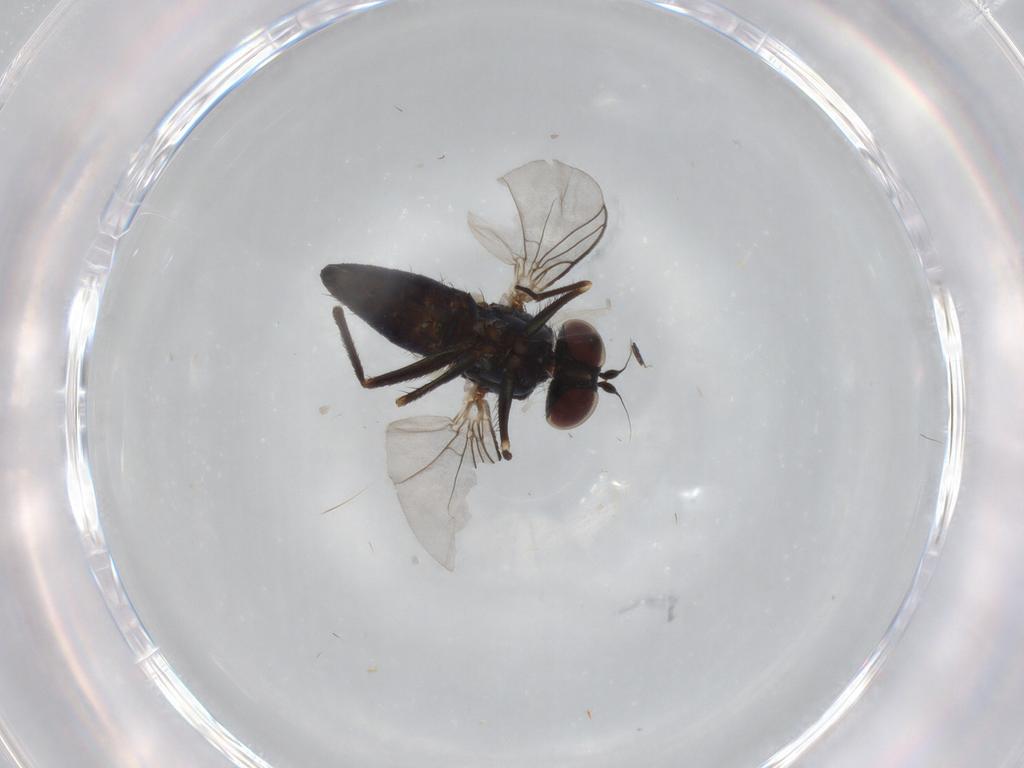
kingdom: Animalia
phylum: Arthropoda
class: Insecta
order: Diptera
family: Dolichopodidae
